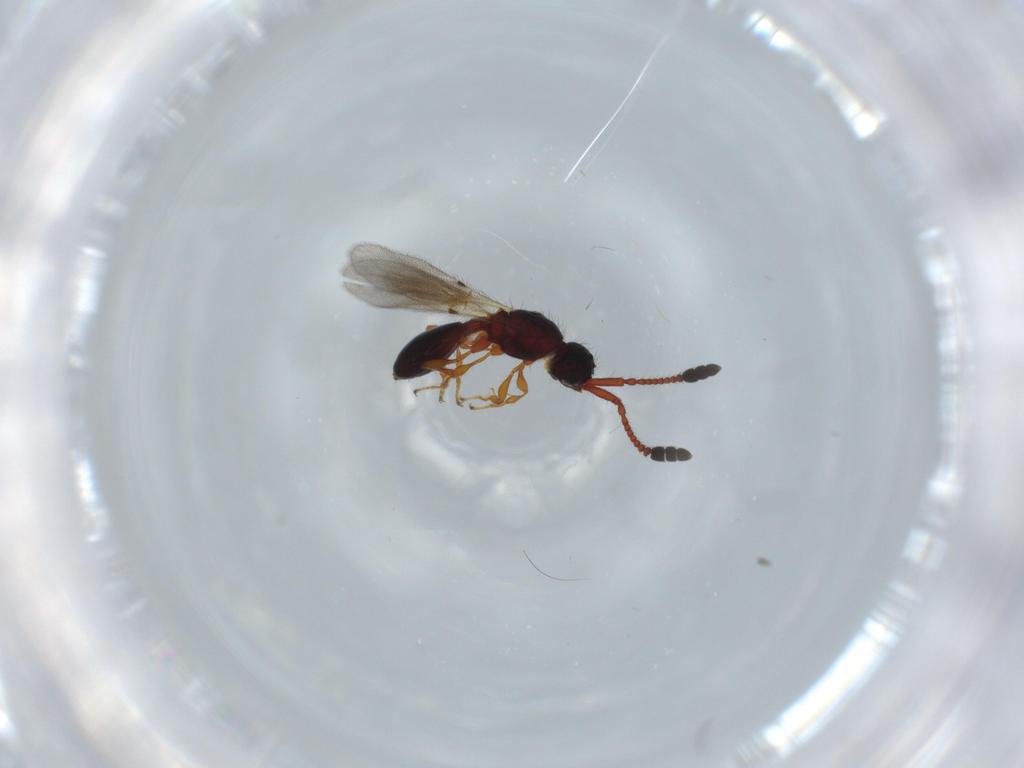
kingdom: Animalia
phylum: Arthropoda
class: Insecta
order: Hymenoptera
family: Diapriidae
